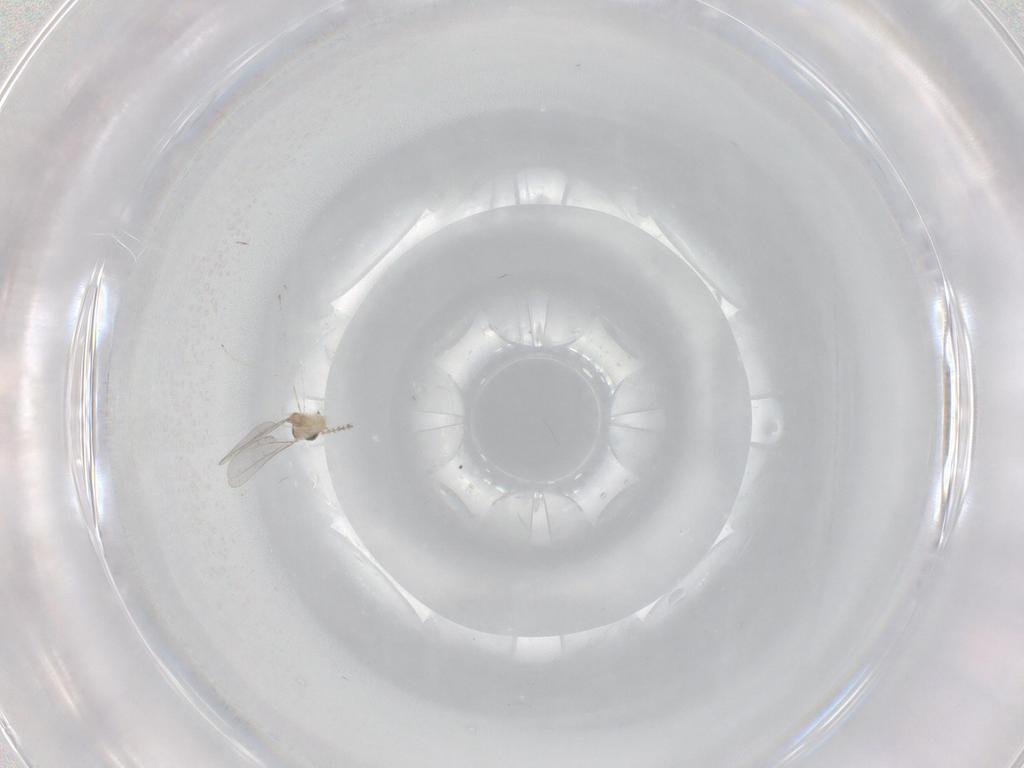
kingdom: Animalia
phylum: Arthropoda
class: Insecta
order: Diptera
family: Cecidomyiidae
